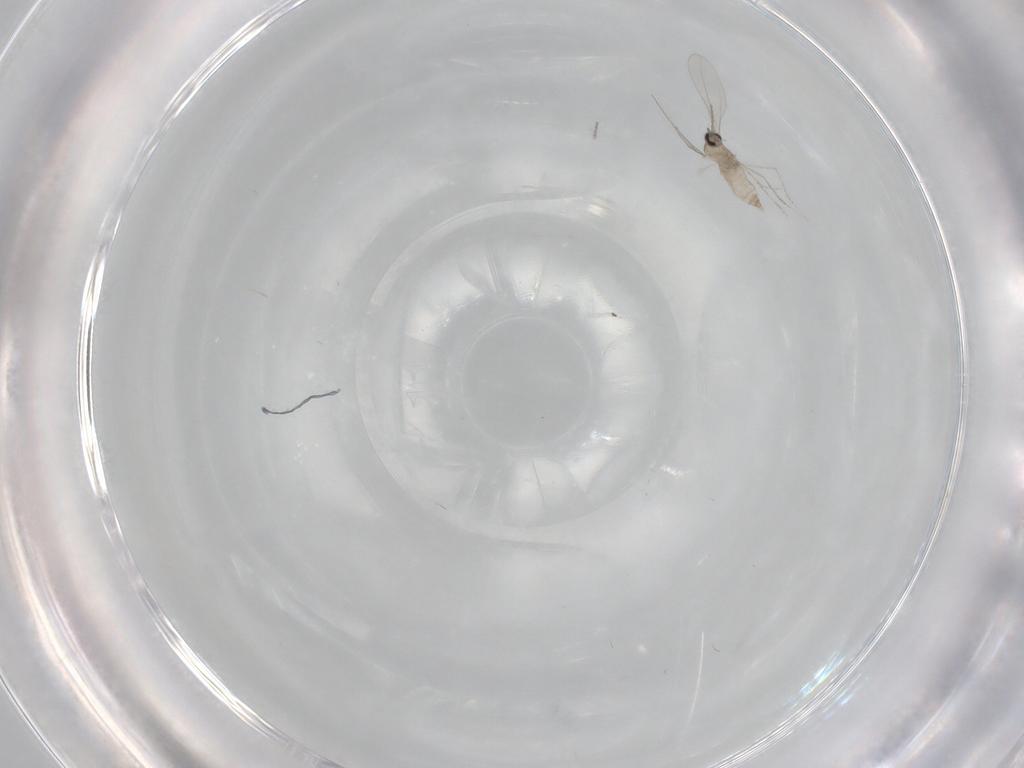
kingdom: Animalia
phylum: Arthropoda
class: Insecta
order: Diptera
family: Cecidomyiidae
